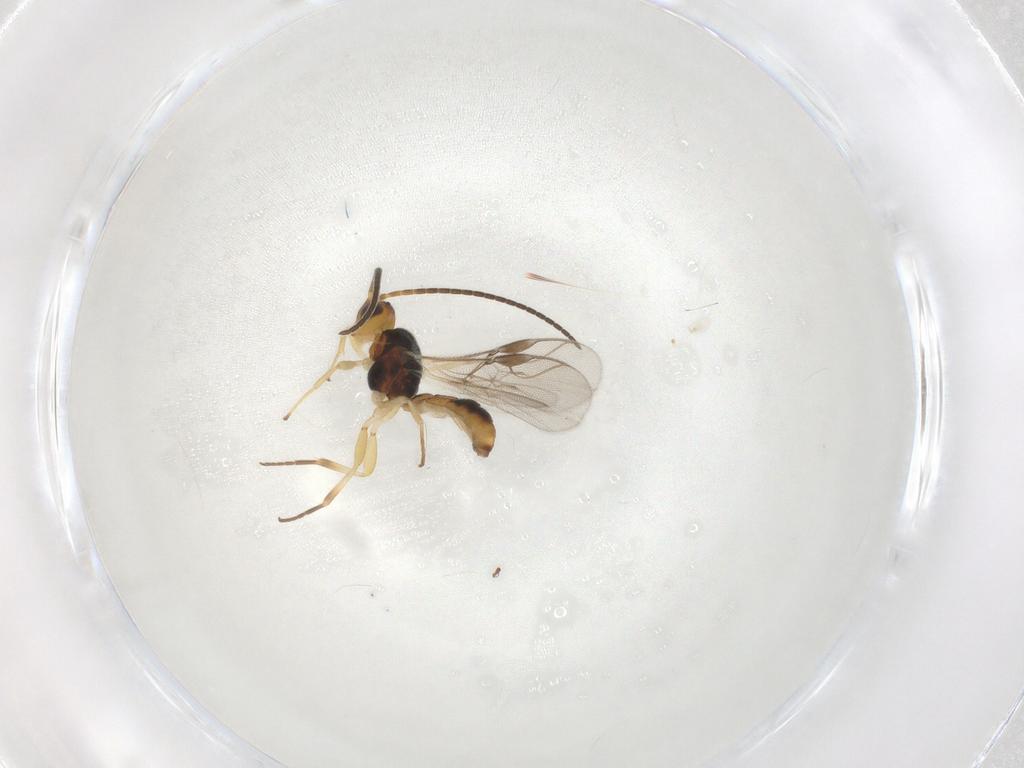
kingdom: Animalia
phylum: Arthropoda
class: Insecta
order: Hymenoptera
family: Braconidae
